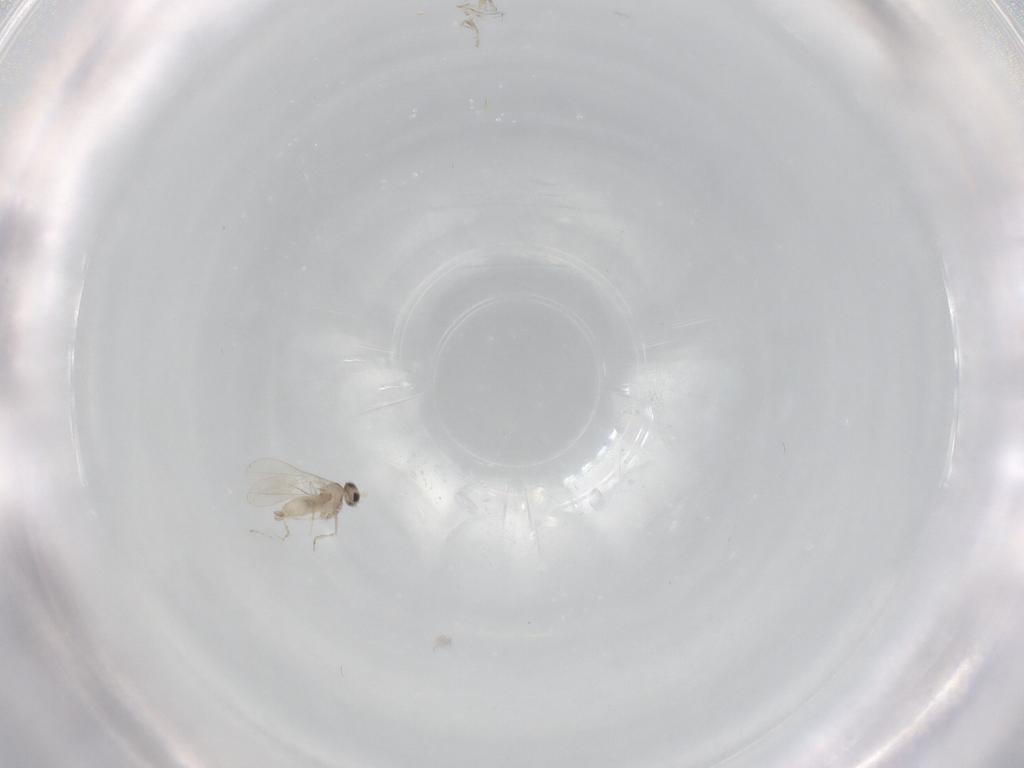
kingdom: Animalia
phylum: Arthropoda
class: Insecta
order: Diptera
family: Cecidomyiidae
